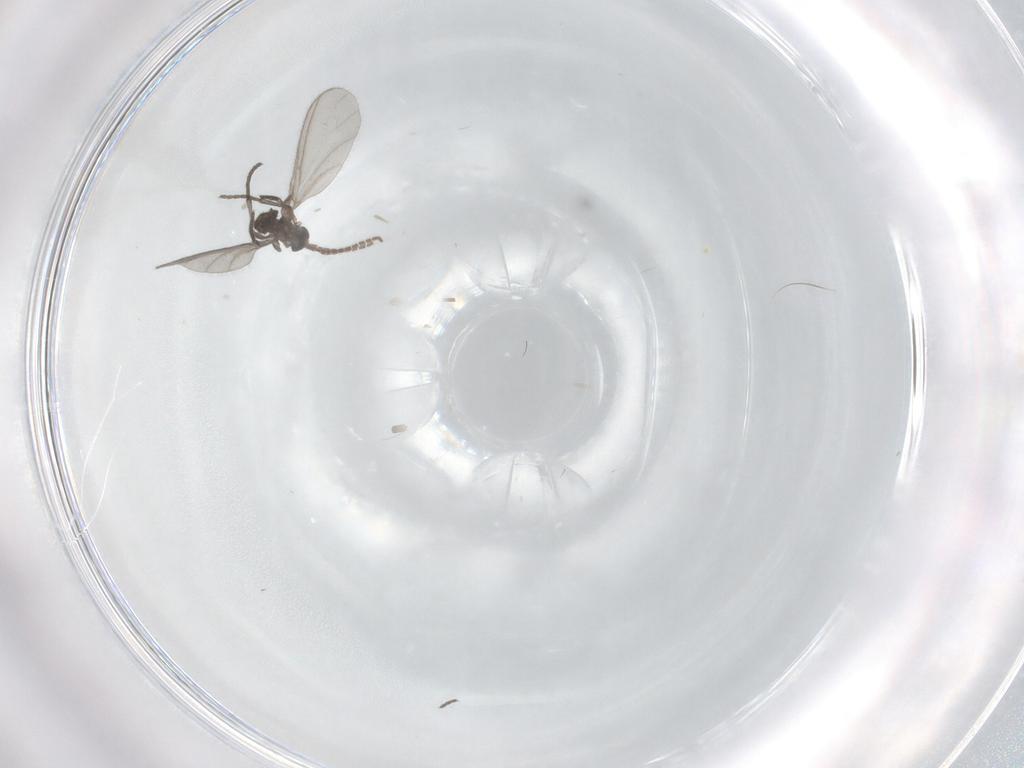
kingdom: Animalia
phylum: Arthropoda
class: Insecta
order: Diptera
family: Sciaridae
